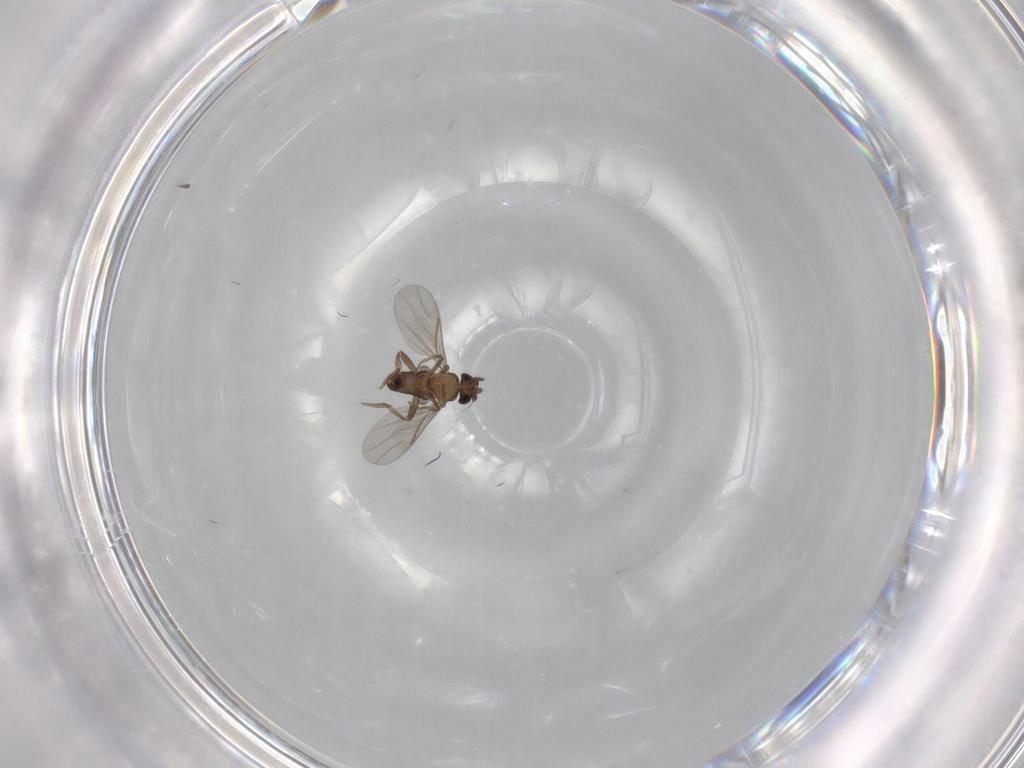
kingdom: Animalia
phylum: Arthropoda
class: Insecta
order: Diptera
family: Phoridae
